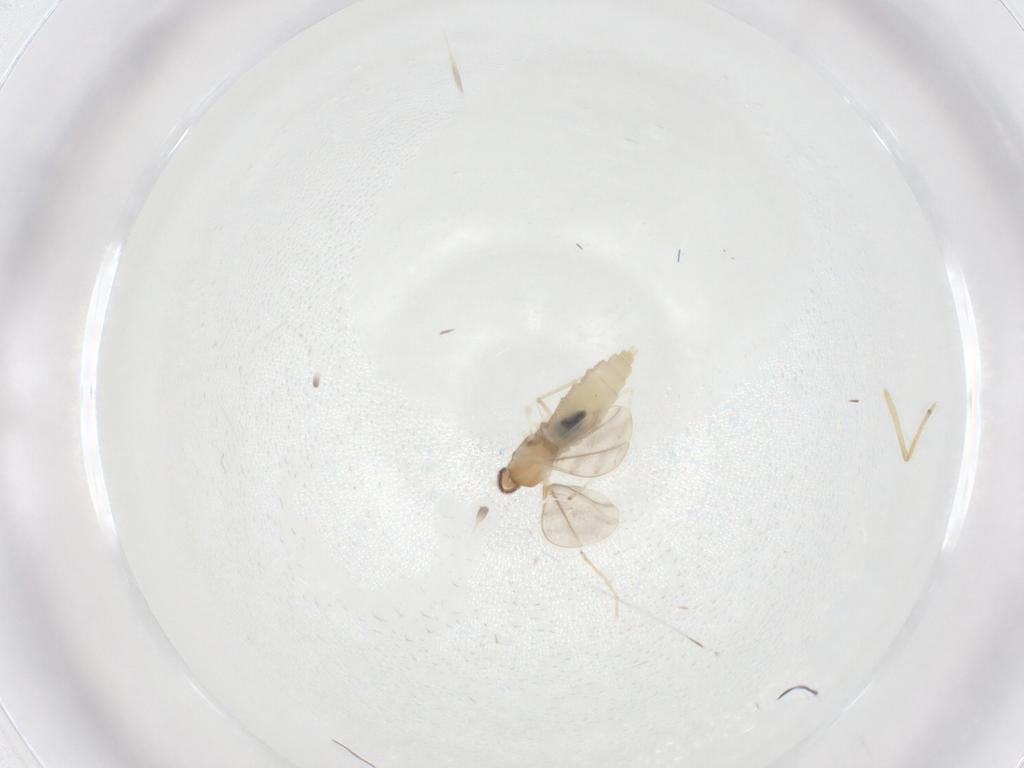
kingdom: Animalia
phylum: Arthropoda
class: Insecta
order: Diptera
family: Cecidomyiidae
